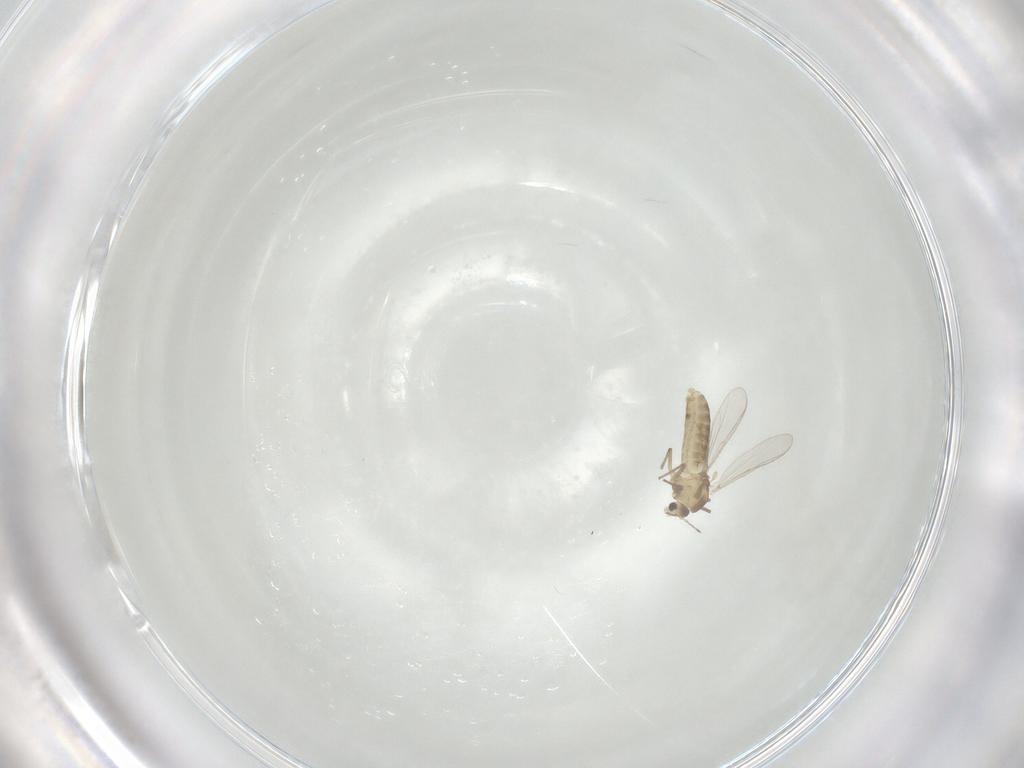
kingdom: Animalia
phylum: Arthropoda
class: Insecta
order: Diptera
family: Chironomidae
